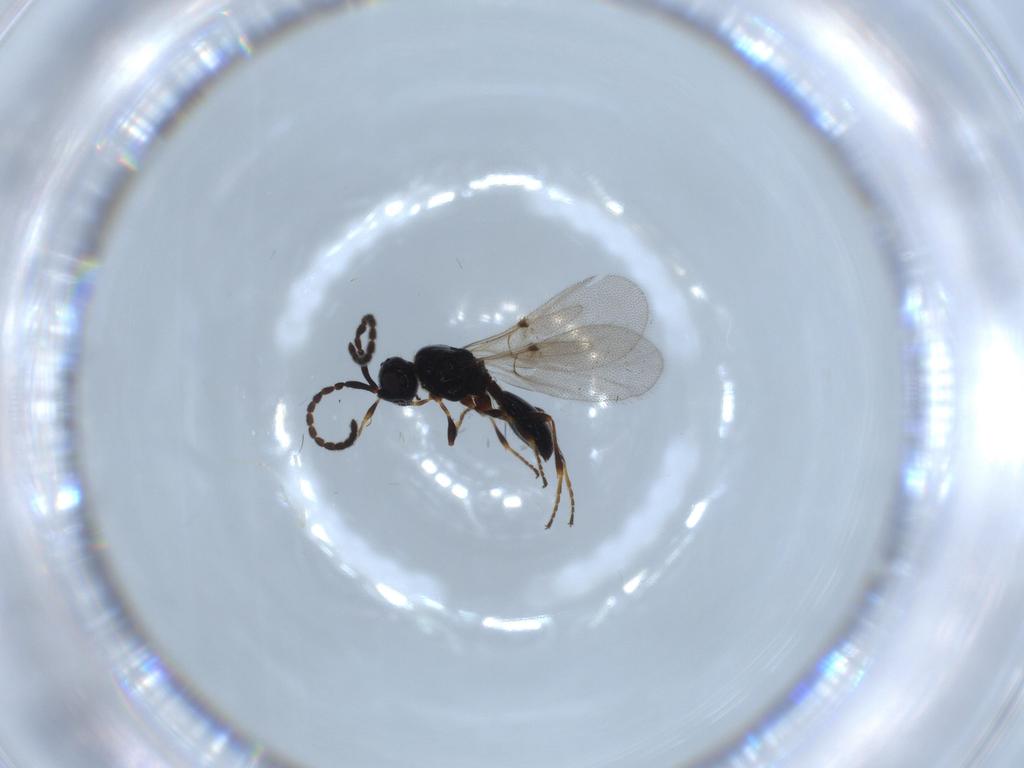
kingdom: Animalia
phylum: Arthropoda
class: Insecta
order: Hymenoptera
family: Diapriidae
